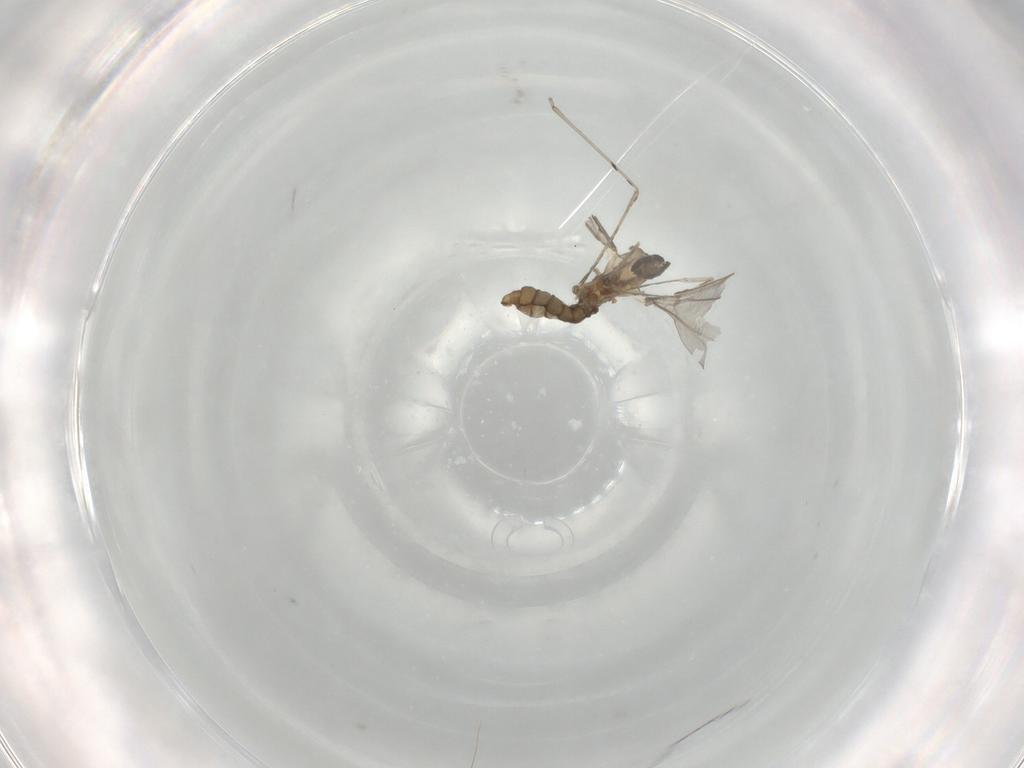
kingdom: Animalia
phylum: Arthropoda
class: Insecta
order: Diptera
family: Cecidomyiidae
